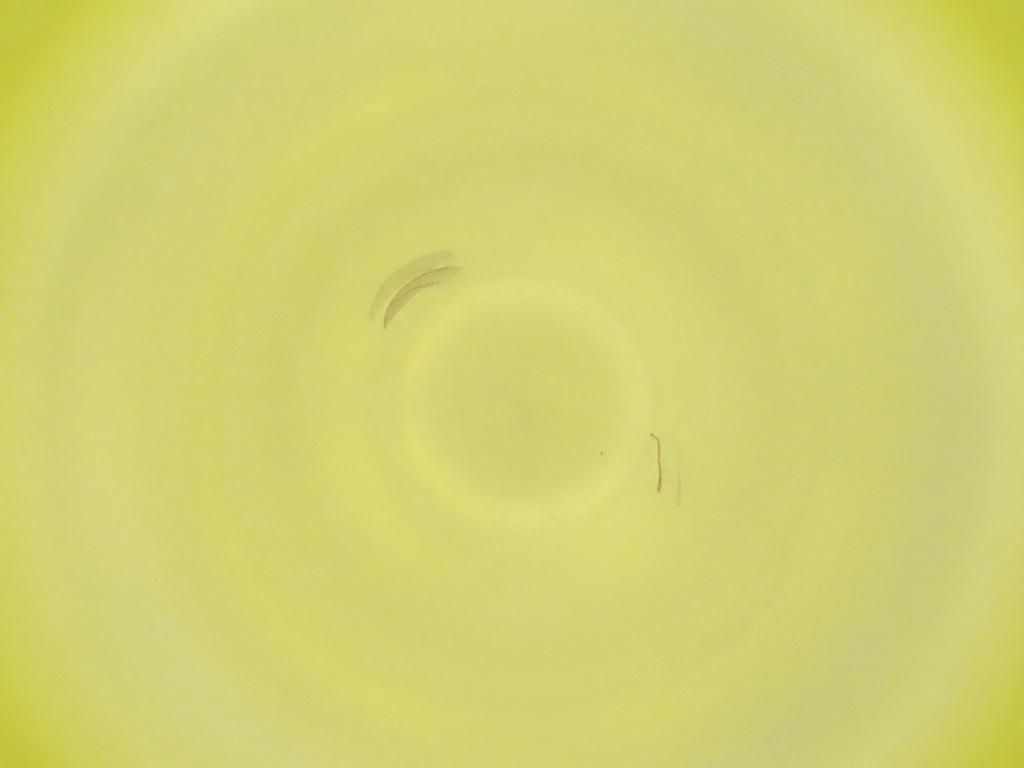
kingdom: Animalia
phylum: Arthropoda
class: Insecta
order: Diptera
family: Cecidomyiidae
